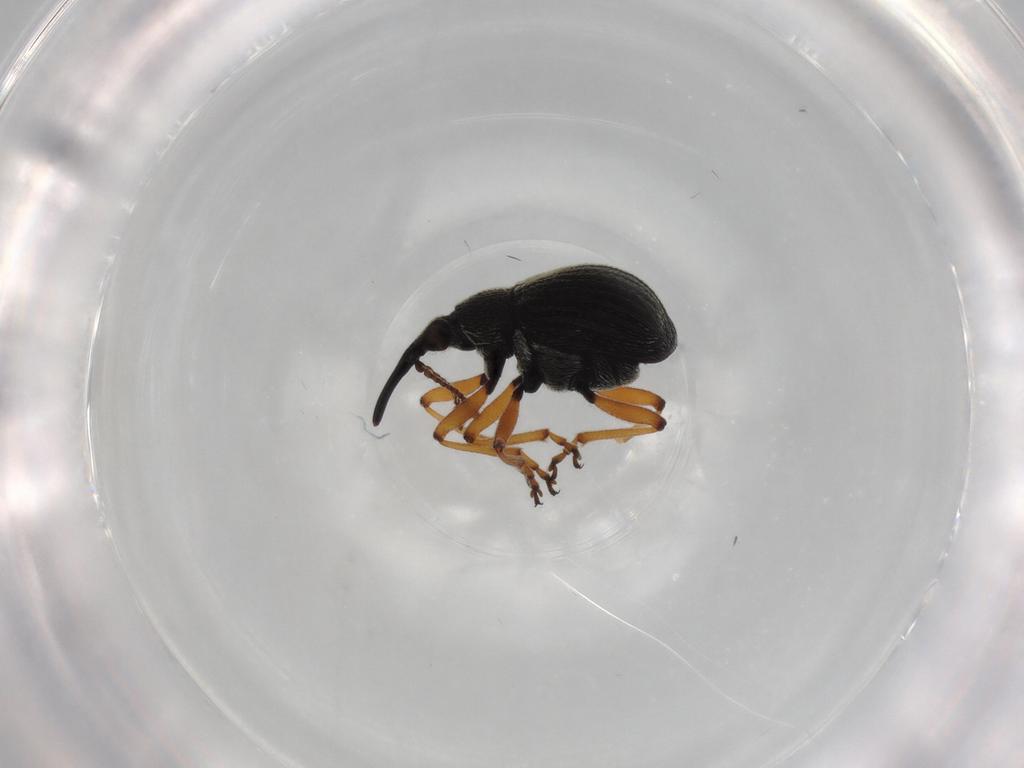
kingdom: Animalia
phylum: Arthropoda
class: Insecta
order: Coleoptera
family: Brentidae
